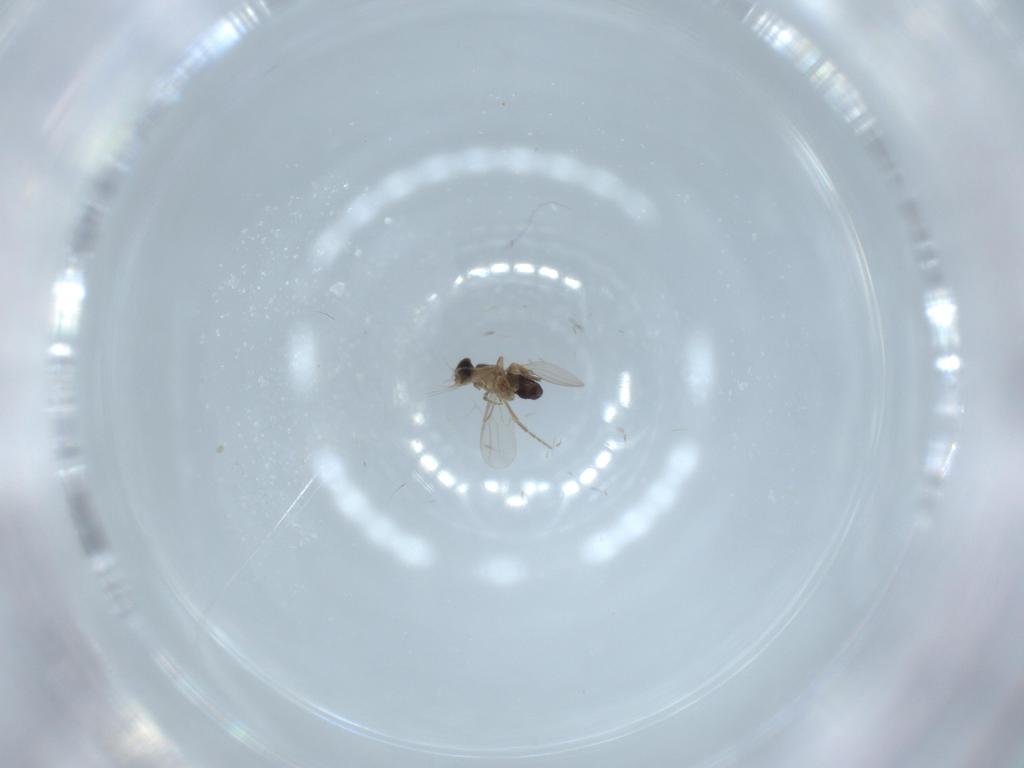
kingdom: Animalia
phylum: Arthropoda
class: Insecta
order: Diptera
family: Phoridae
